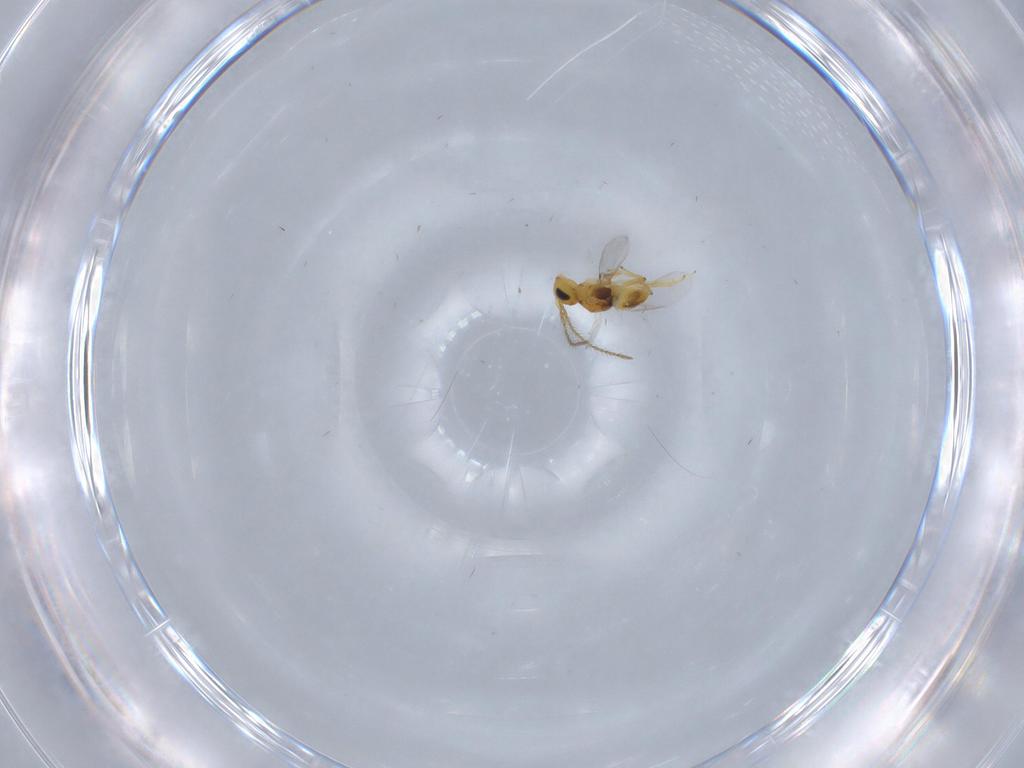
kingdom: Animalia
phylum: Arthropoda
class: Insecta
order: Hymenoptera
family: Encyrtidae
